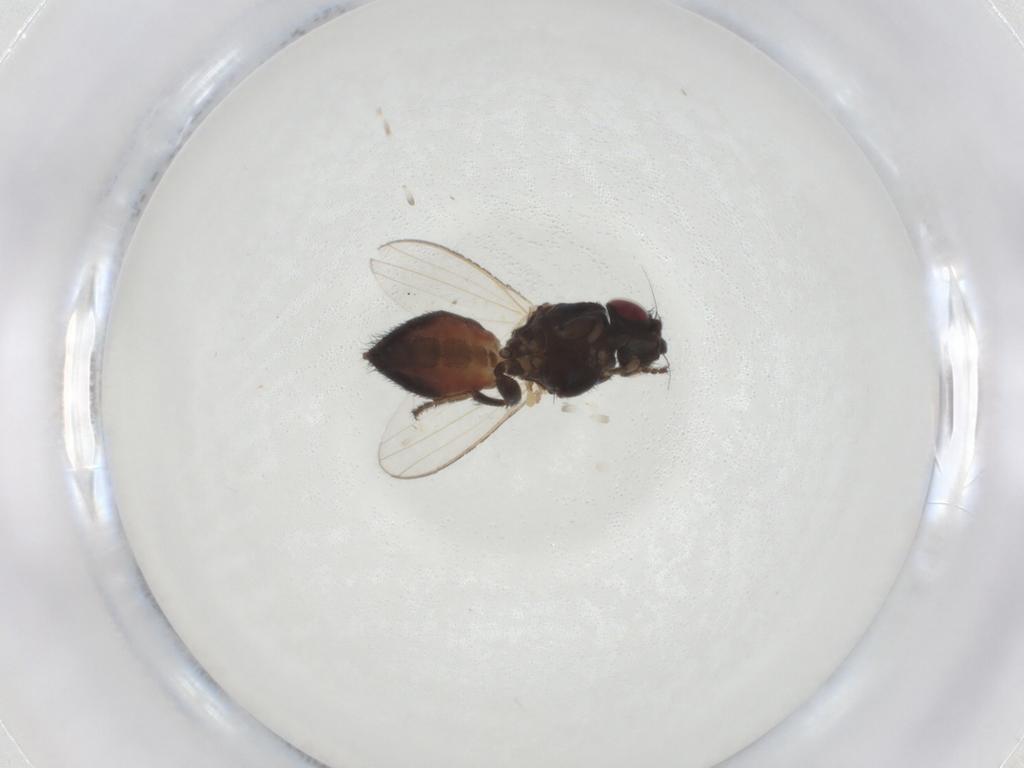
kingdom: Animalia
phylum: Arthropoda
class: Insecta
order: Diptera
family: Milichiidae
